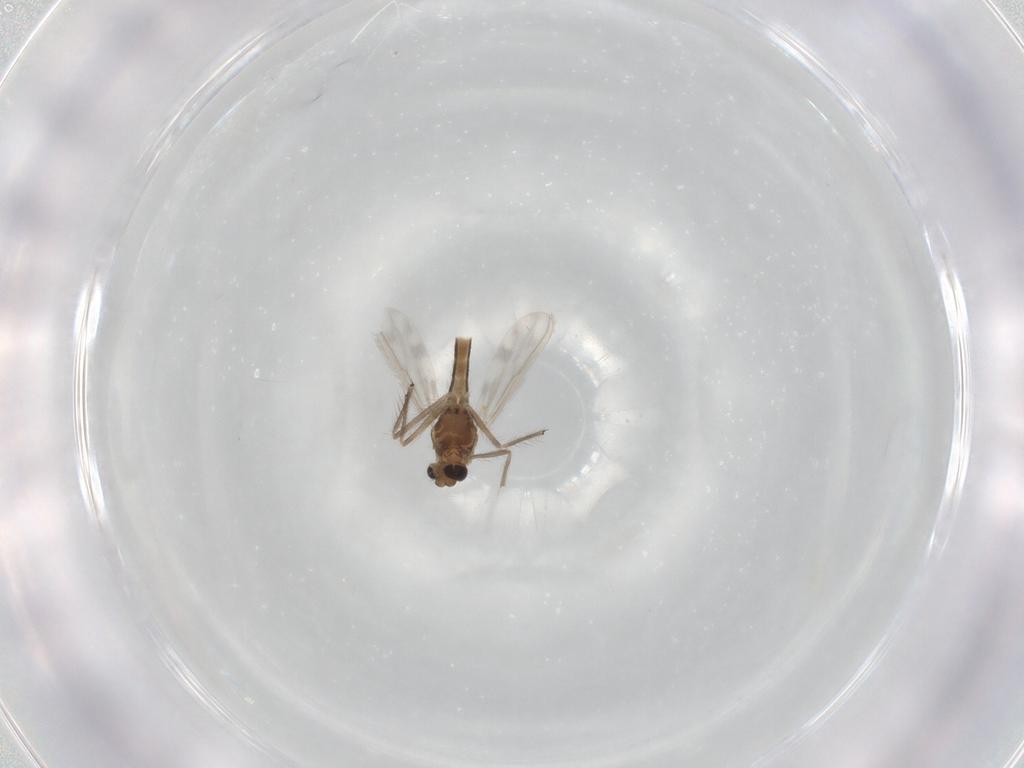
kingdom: Animalia
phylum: Arthropoda
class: Insecta
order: Diptera
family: Chironomidae
